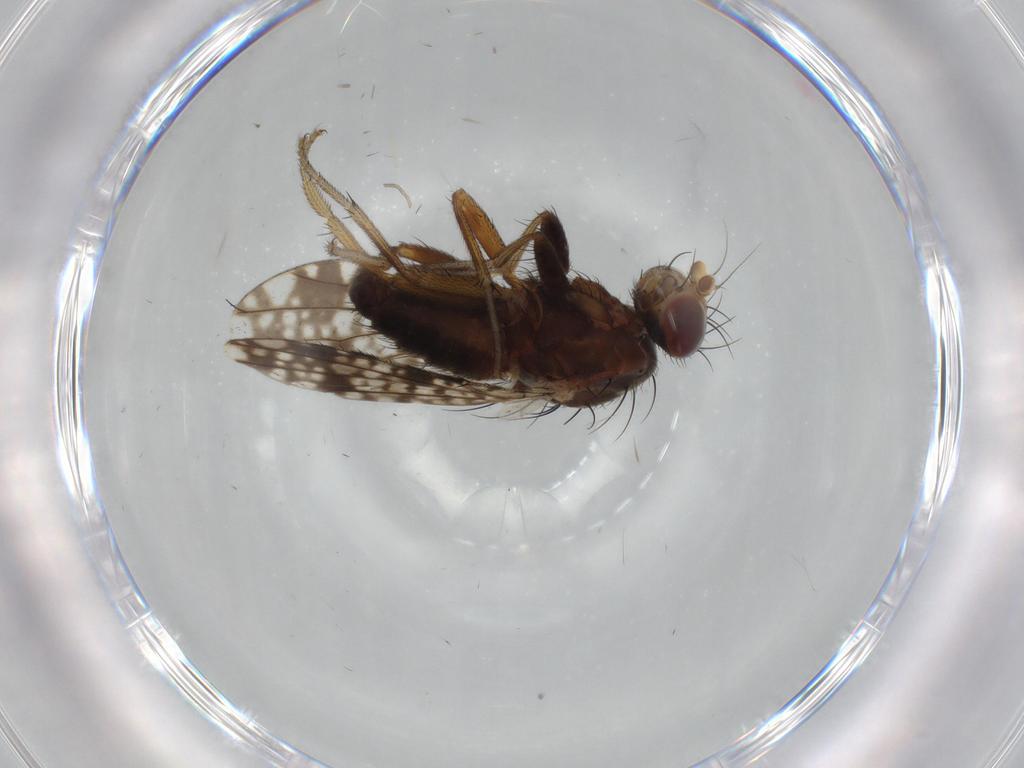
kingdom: Animalia
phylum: Arthropoda
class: Insecta
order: Diptera
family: Tephritidae
